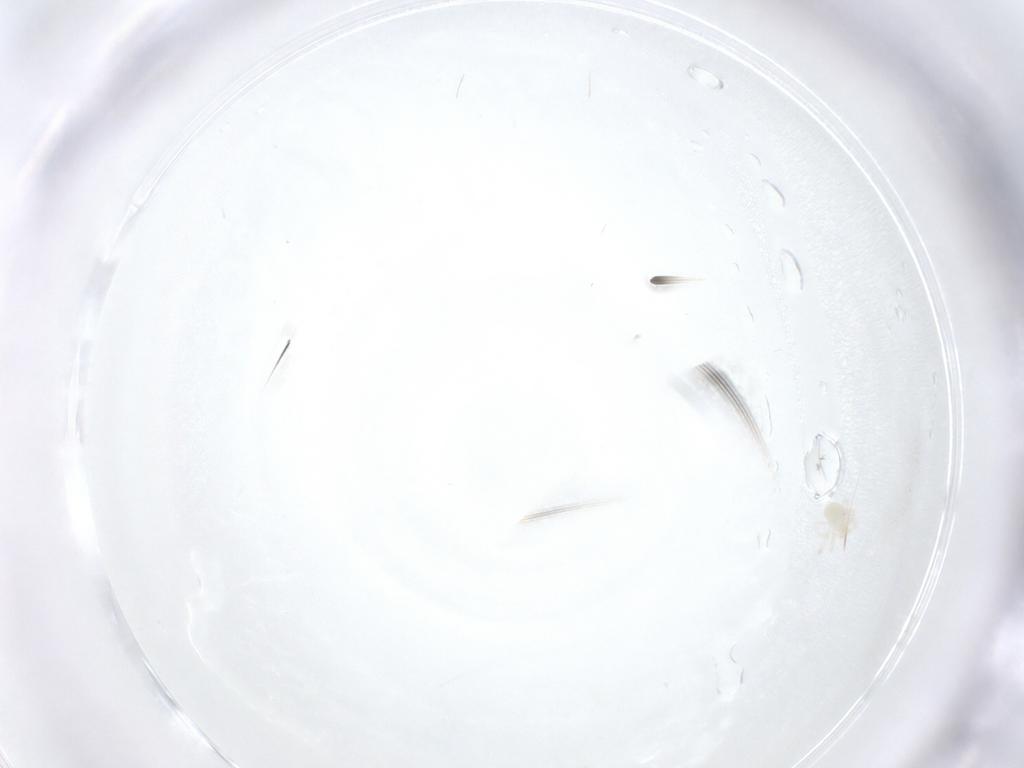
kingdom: Animalia
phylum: Arthropoda
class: Arachnida
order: Trombidiformes
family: Anystidae
